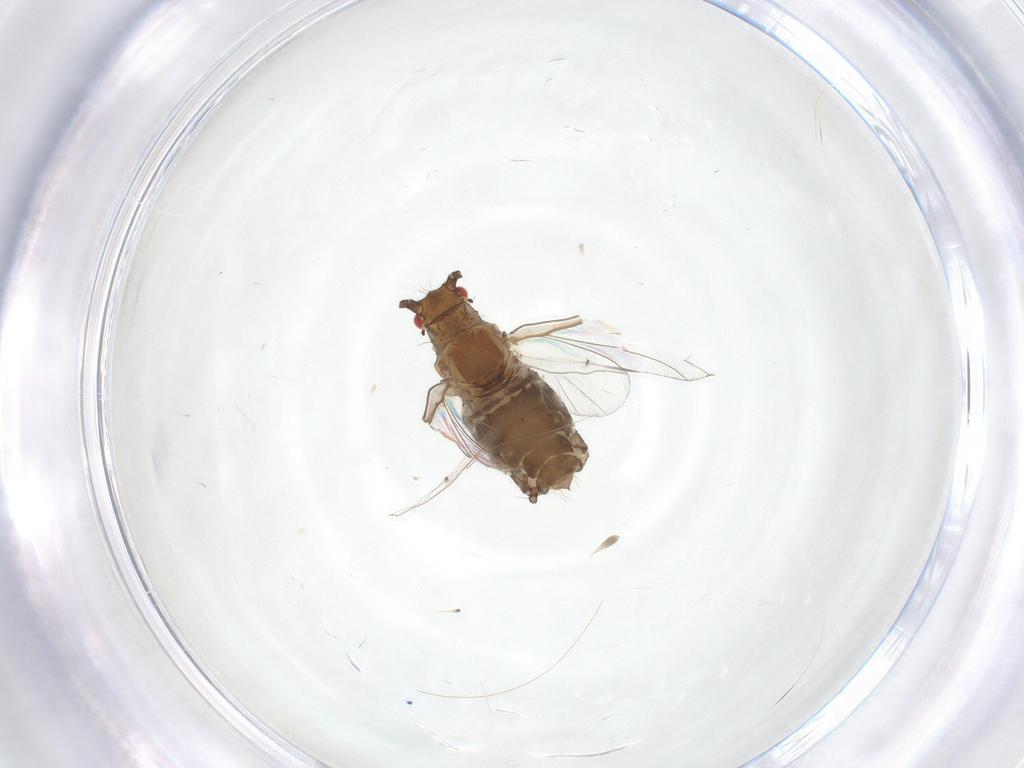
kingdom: Animalia
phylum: Arthropoda
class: Insecta
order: Hemiptera
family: Aphididae
